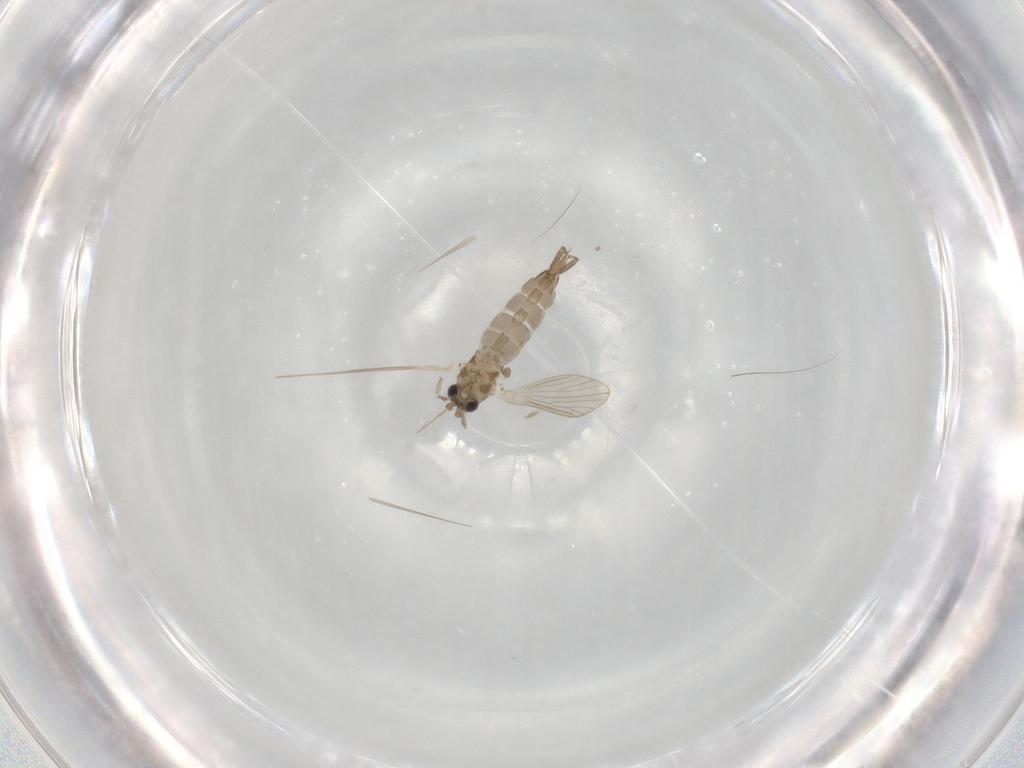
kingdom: Animalia
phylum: Arthropoda
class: Insecta
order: Diptera
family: Psychodidae
